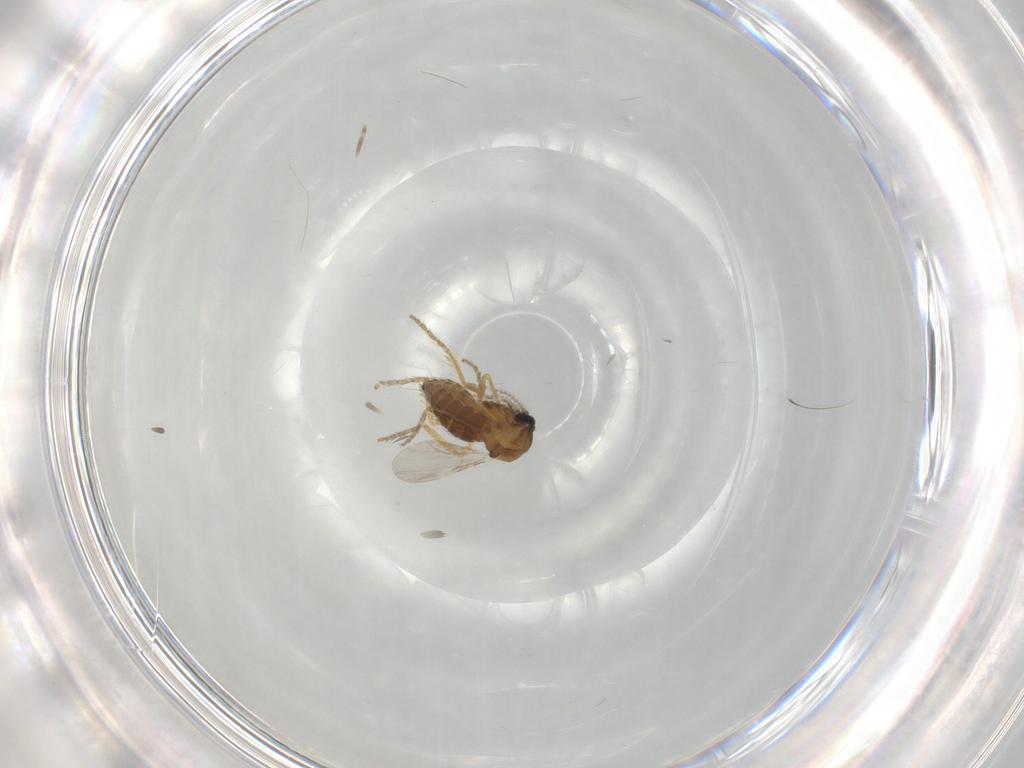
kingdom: Animalia
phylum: Arthropoda
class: Insecta
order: Diptera
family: Ceratopogonidae
